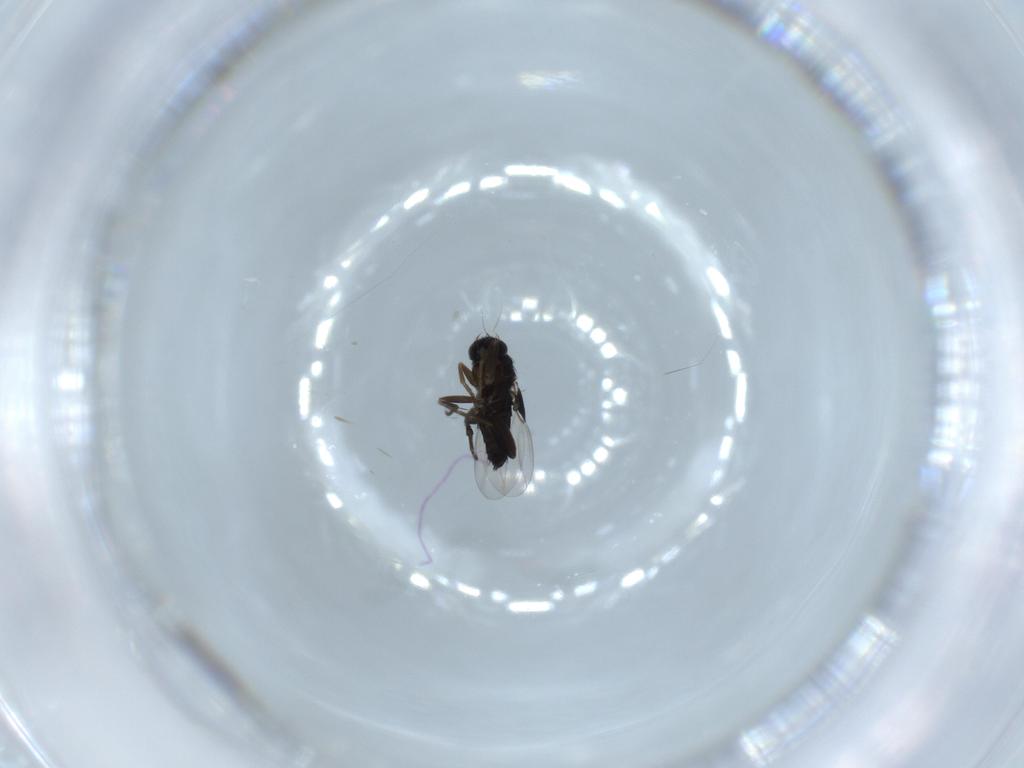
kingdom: Animalia
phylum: Arthropoda
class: Insecta
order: Diptera
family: Phoridae
